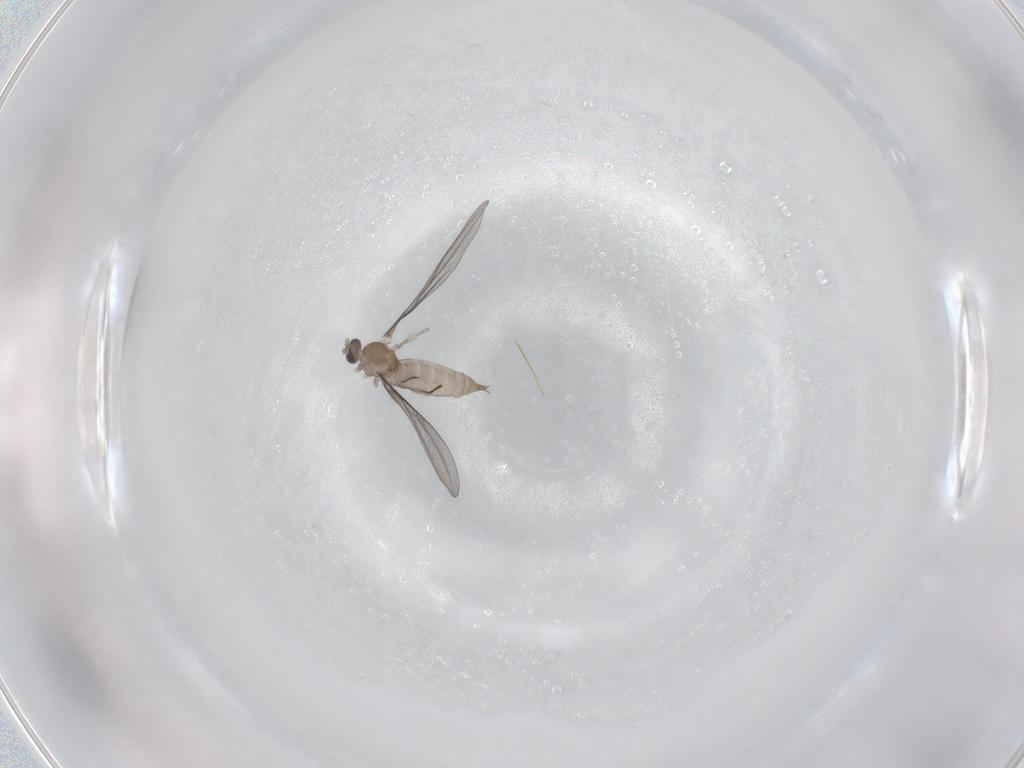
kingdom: Animalia
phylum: Arthropoda
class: Insecta
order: Diptera
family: Cecidomyiidae
